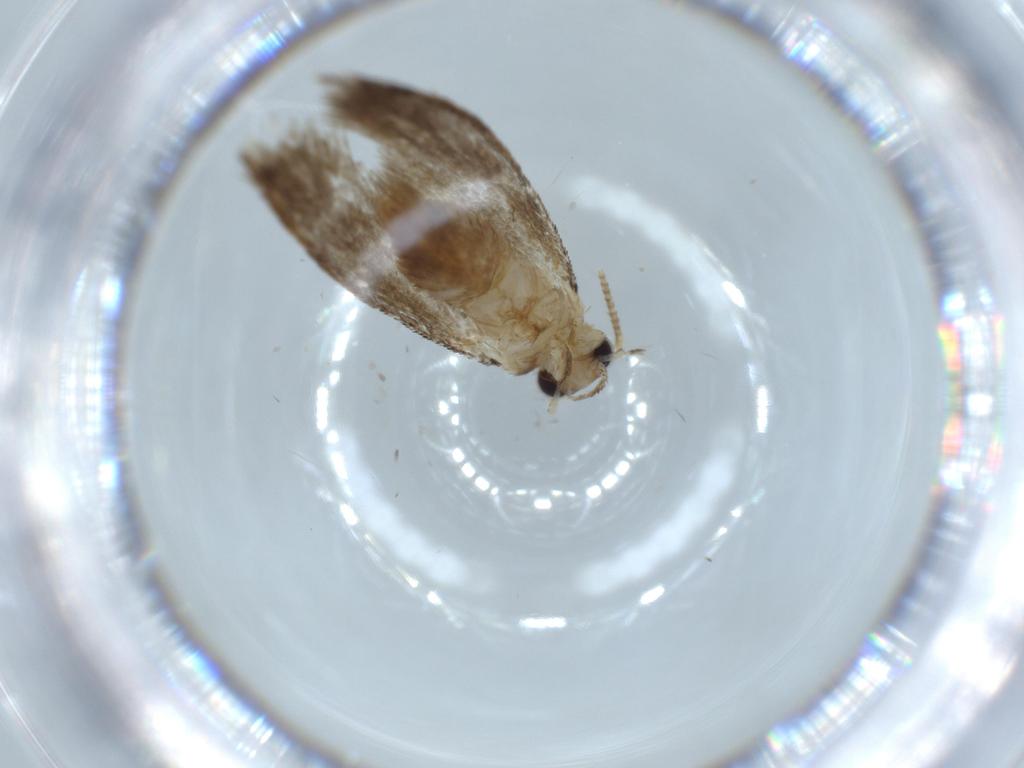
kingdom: Animalia
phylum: Arthropoda
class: Insecta
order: Lepidoptera
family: Tineidae
